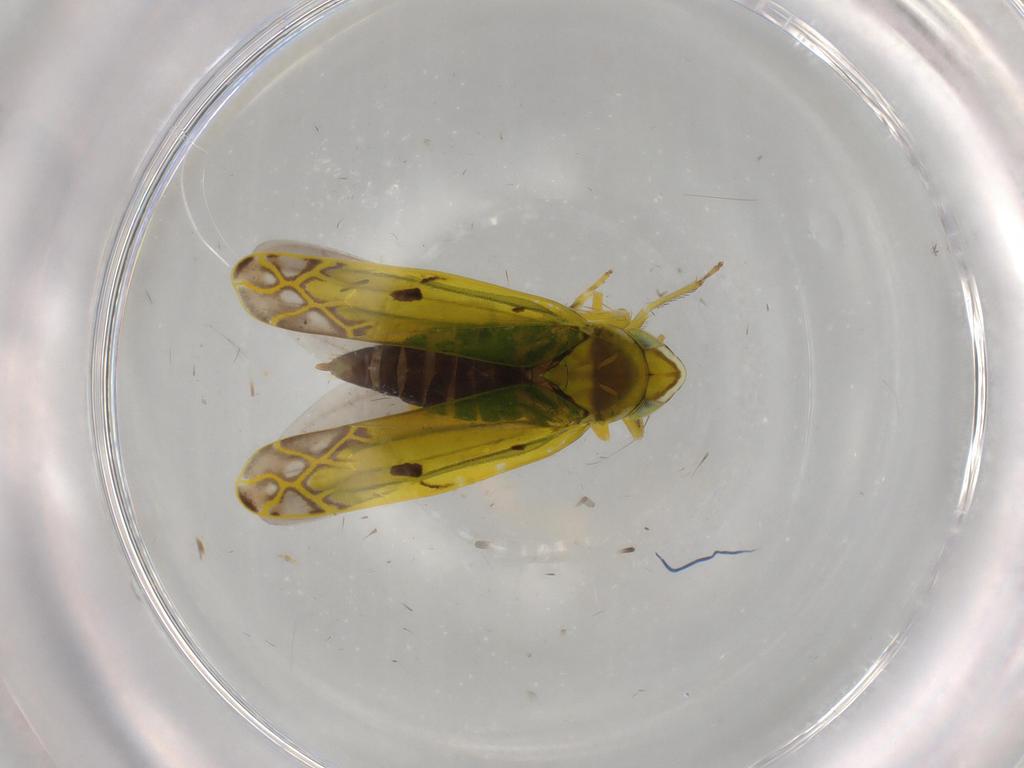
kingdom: Animalia
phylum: Arthropoda
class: Insecta
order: Hemiptera
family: Cicadellidae
